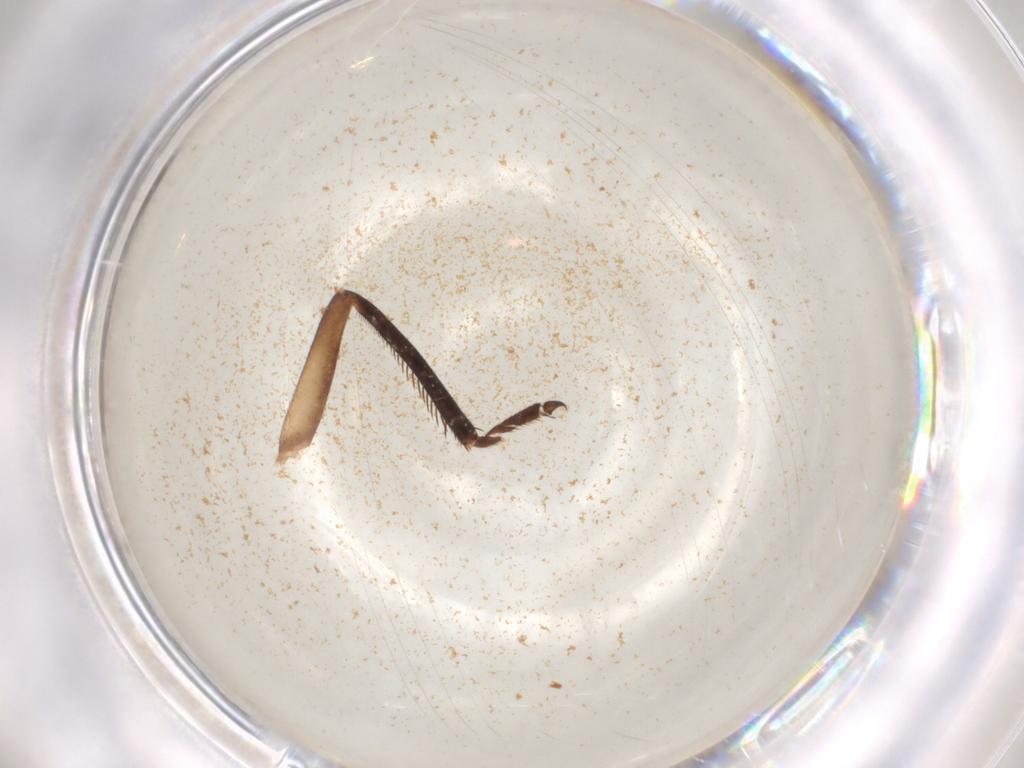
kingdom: Animalia
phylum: Arthropoda
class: Insecta
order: Hemiptera
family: Cicadellidae
